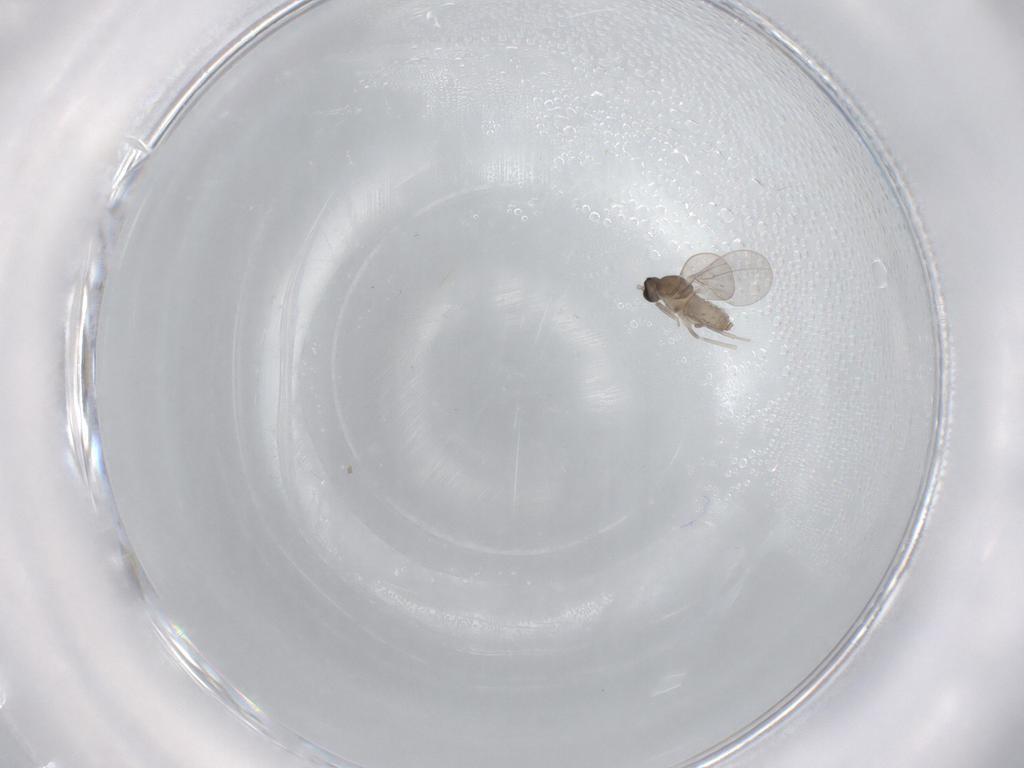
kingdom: Animalia
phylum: Arthropoda
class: Insecta
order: Diptera
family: Cecidomyiidae
